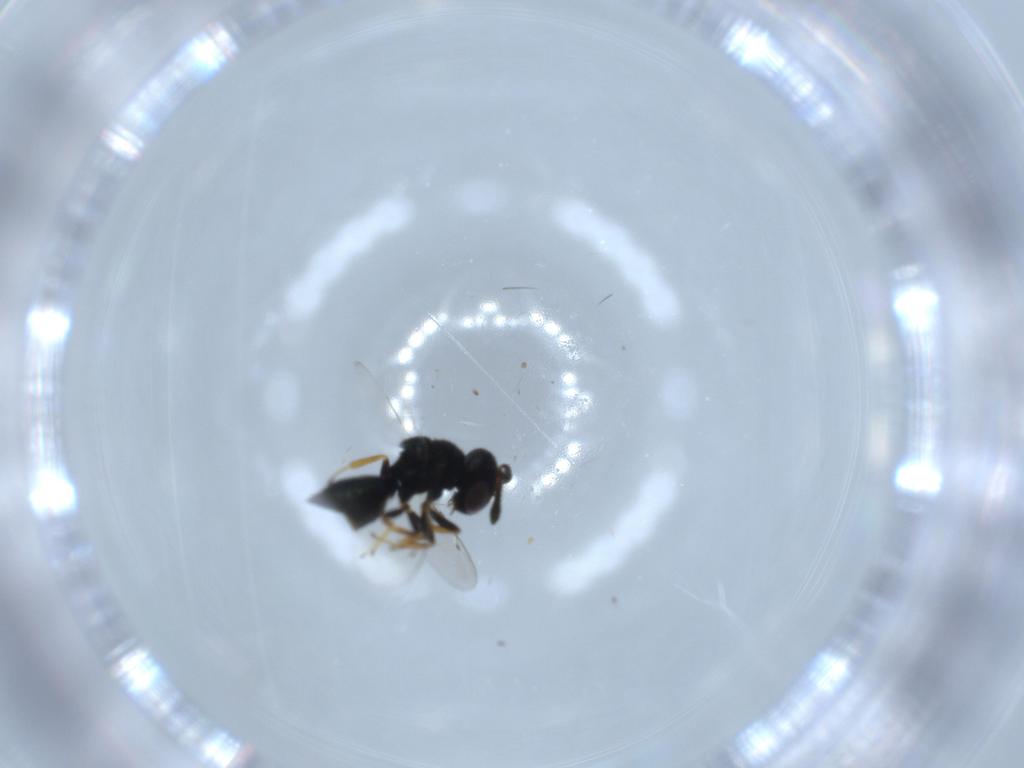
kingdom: Animalia
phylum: Arthropoda
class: Insecta
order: Hymenoptera
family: Pteromalidae
